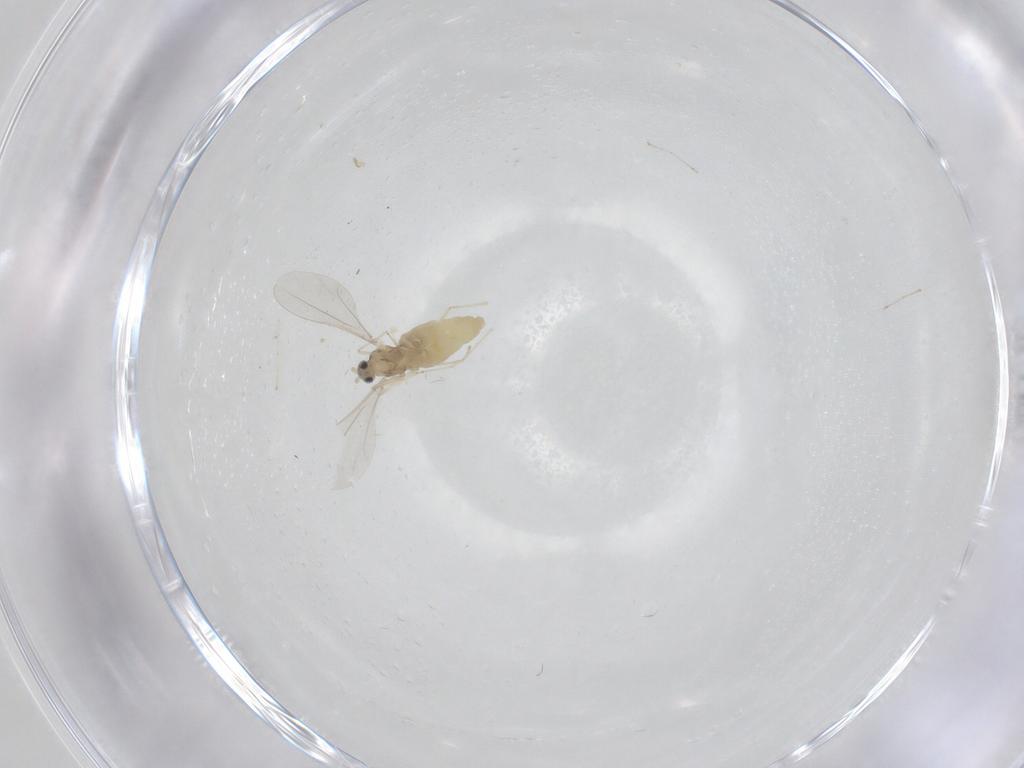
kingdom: Animalia
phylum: Arthropoda
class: Insecta
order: Diptera
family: Cecidomyiidae
